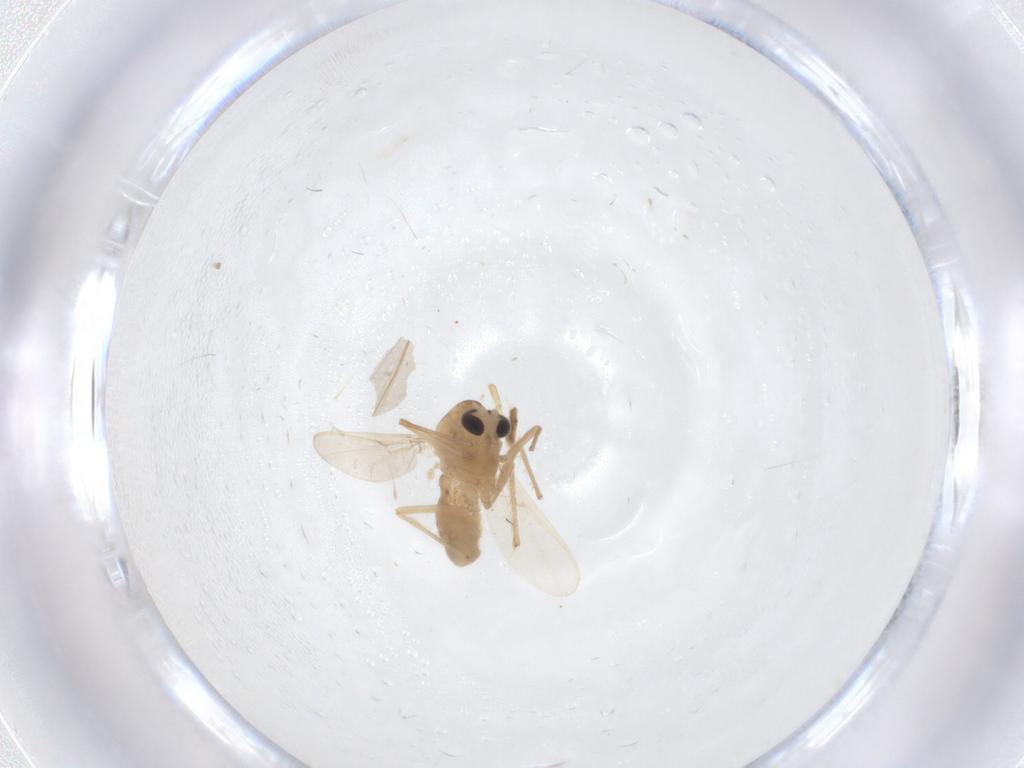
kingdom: Animalia
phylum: Arthropoda
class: Insecta
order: Diptera
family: Chironomidae
